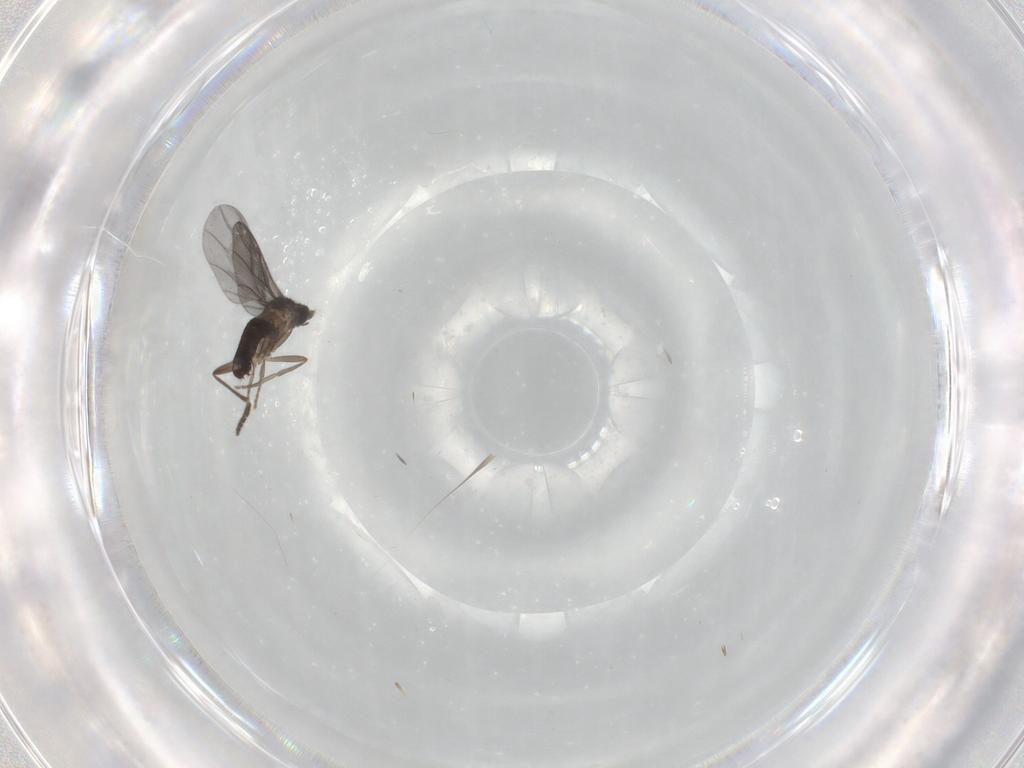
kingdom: Animalia
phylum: Arthropoda
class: Insecta
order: Diptera
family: Phoridae
